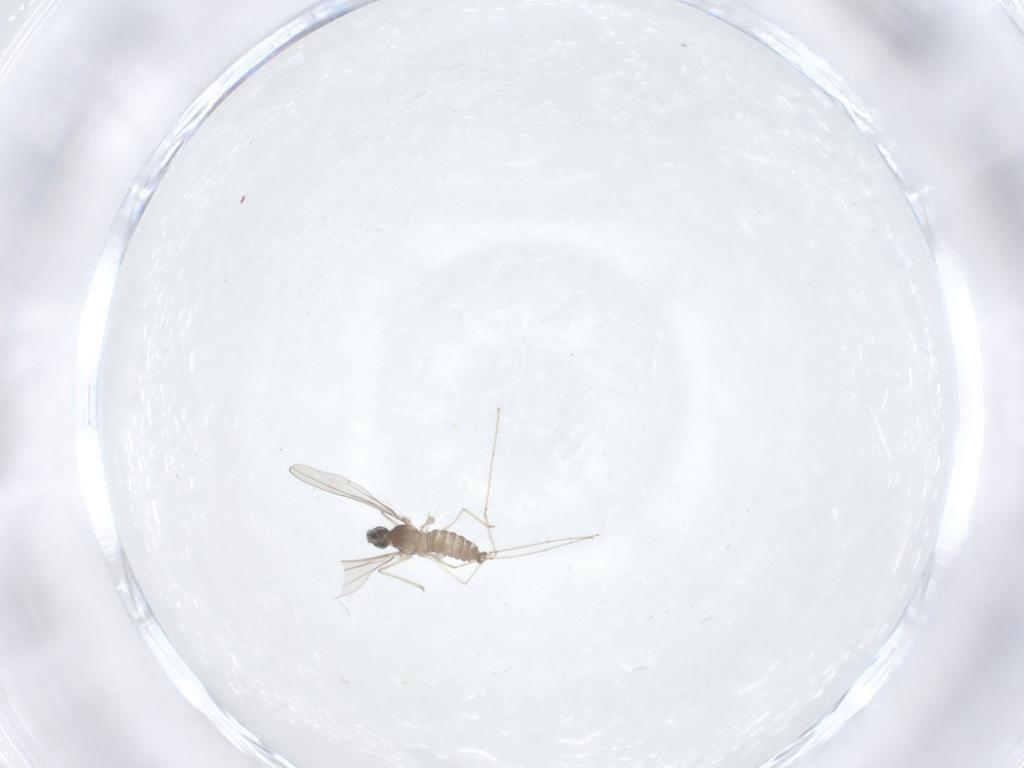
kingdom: Animalia
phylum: Arthropoda
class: Insecta
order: Diptera
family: Cecidomyiidae
